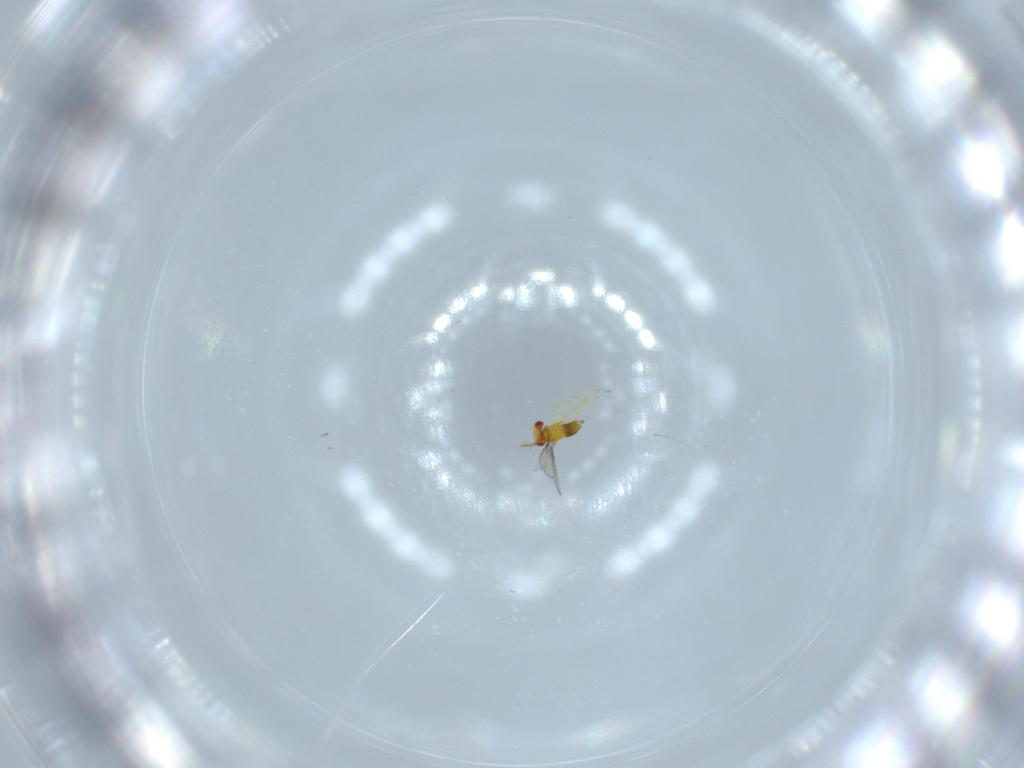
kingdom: Animalia
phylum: Arthropoda
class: Insecta
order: Hymenoptera
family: Trichogrammatidae
